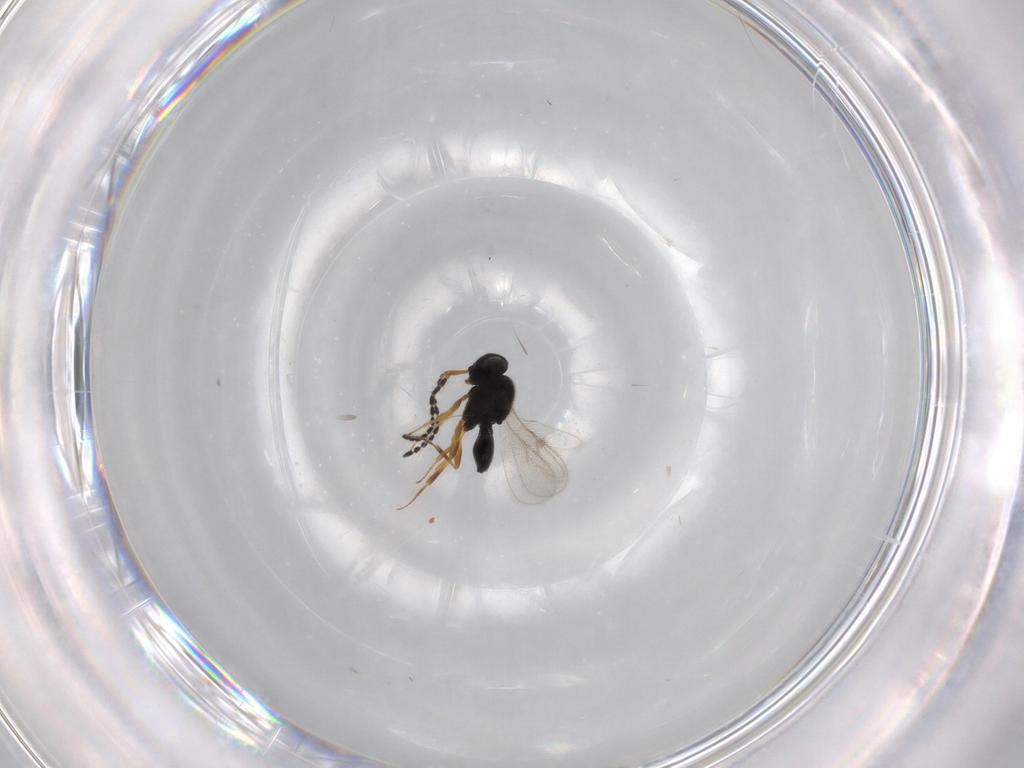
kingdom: Animalia
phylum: Arthropoda
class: Insecta
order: Hymenoptera
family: Scelionidae
